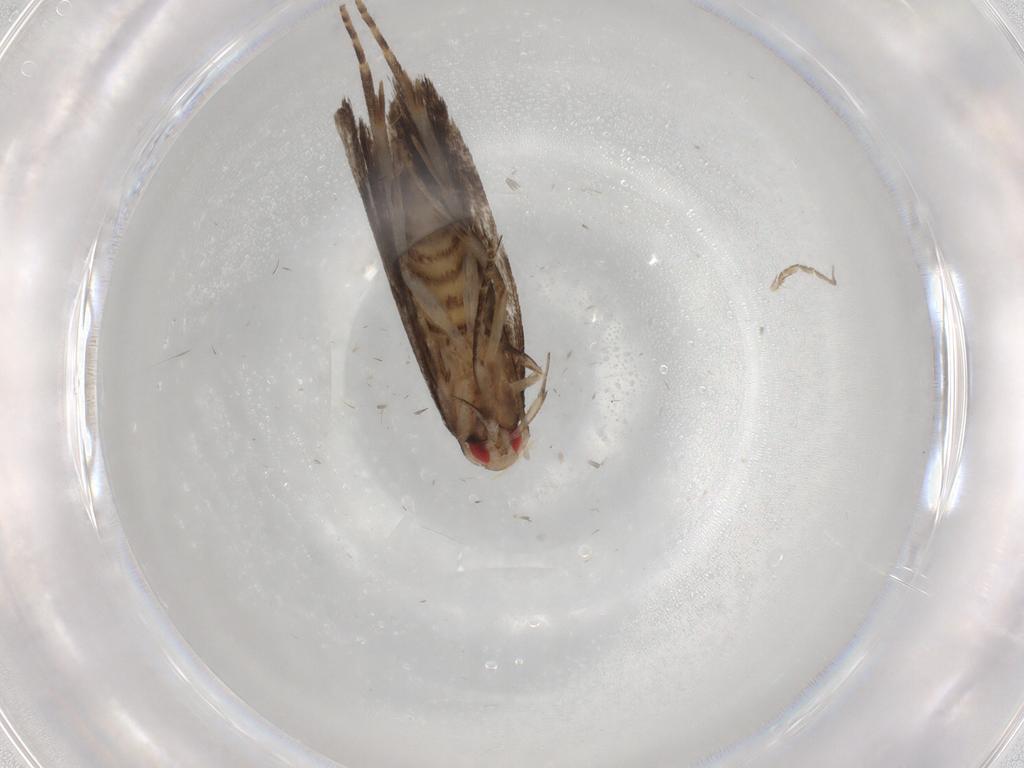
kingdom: Animalia
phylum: Arthropoda
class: Insecta
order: Lepidoptera
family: Gelechiidae
